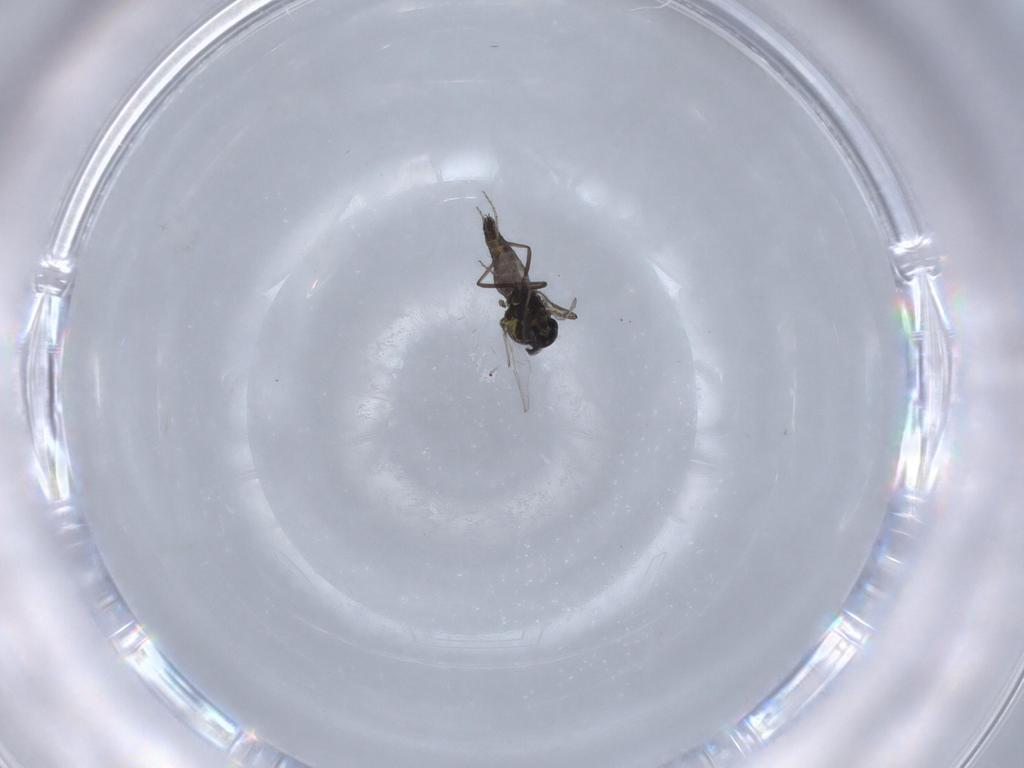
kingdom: Animalia
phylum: Arthropoda
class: Insecta
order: Diptera
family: Ceratopogonidae
